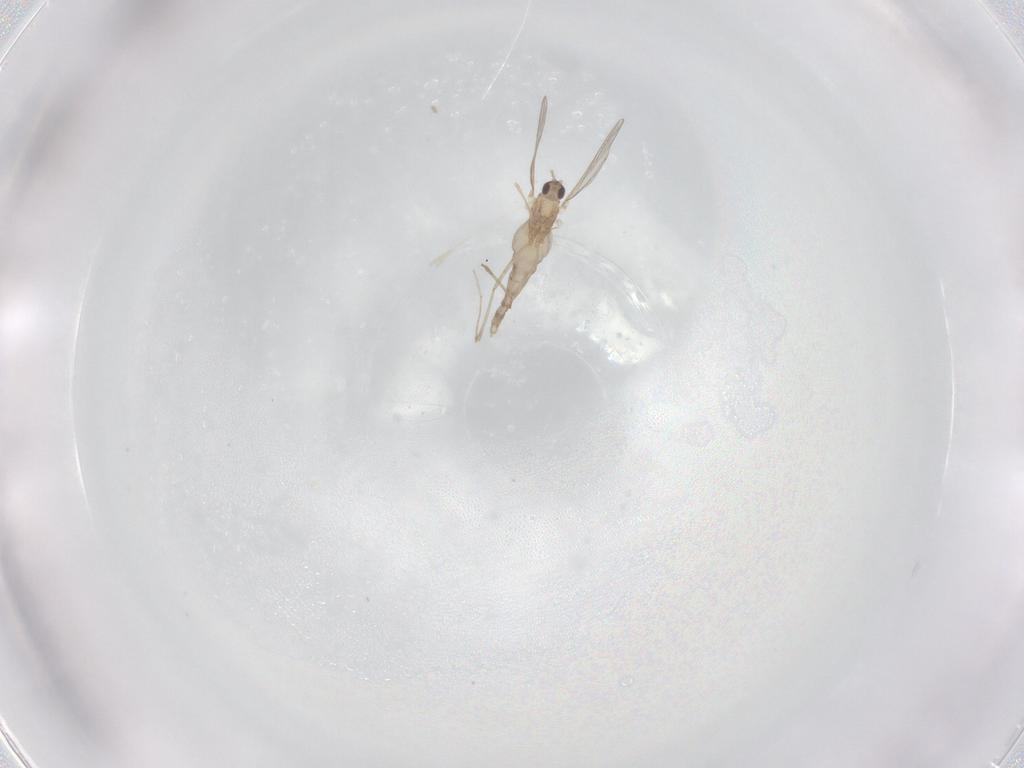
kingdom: Animalia
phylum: Arthropoda
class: Insecta
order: Diptera
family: Cecidomyiidae
